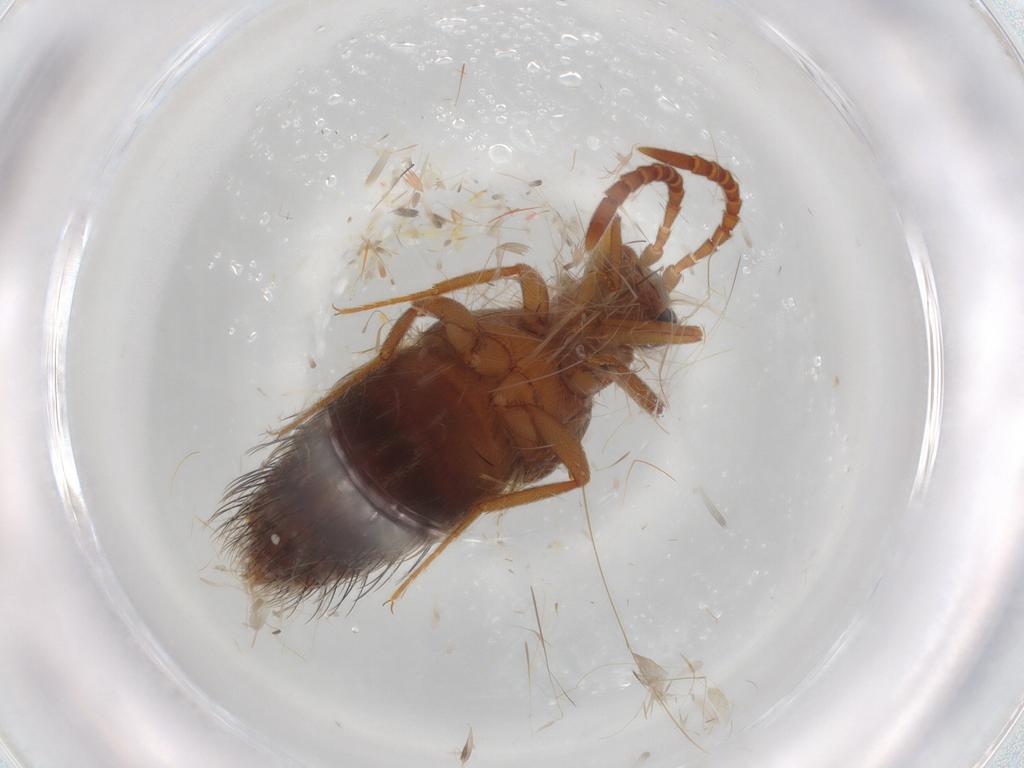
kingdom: Animalia
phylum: Arthropoda
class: Insecta
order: Coleoptera
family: Staphylinidae
